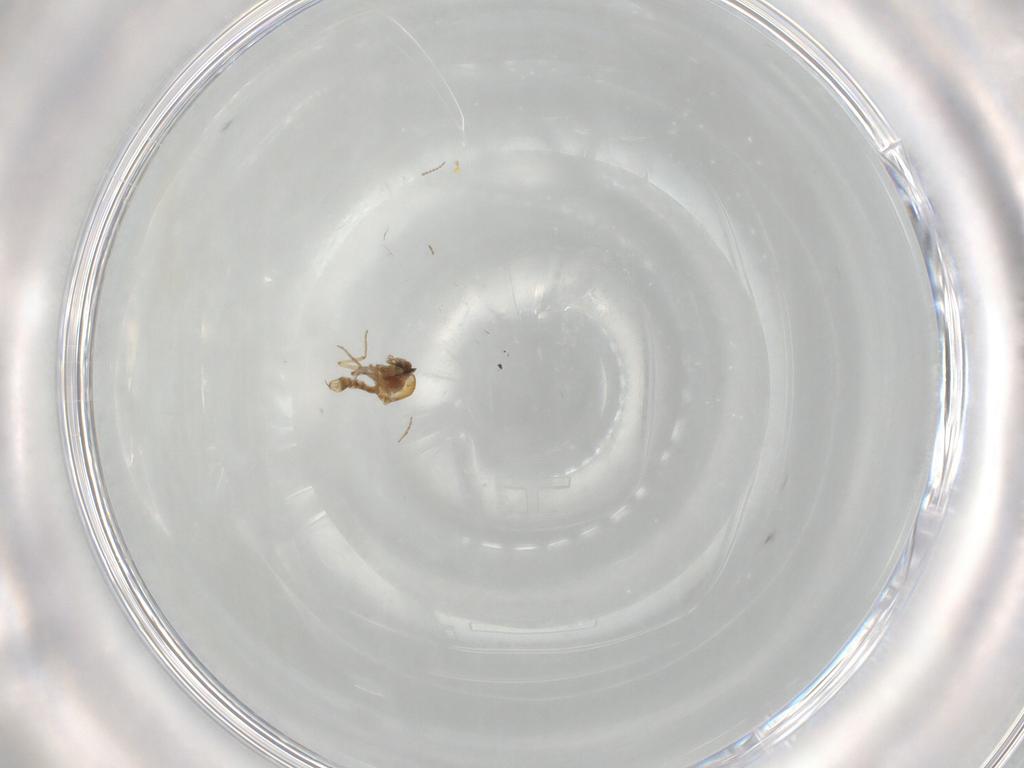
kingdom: Animalia
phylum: Arthropoda
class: Insecta
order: Diptera
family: Ceratopogonidae
